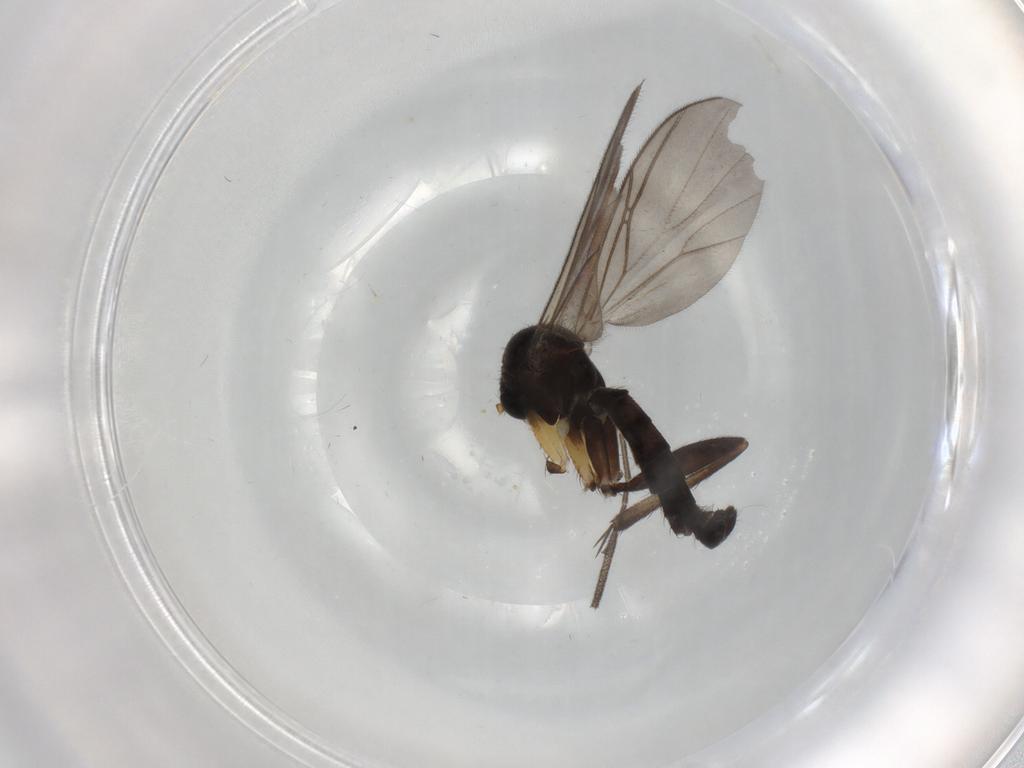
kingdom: Animalia
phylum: Arthropoda
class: Insecta
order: Diptera
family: Mycetophilidae
